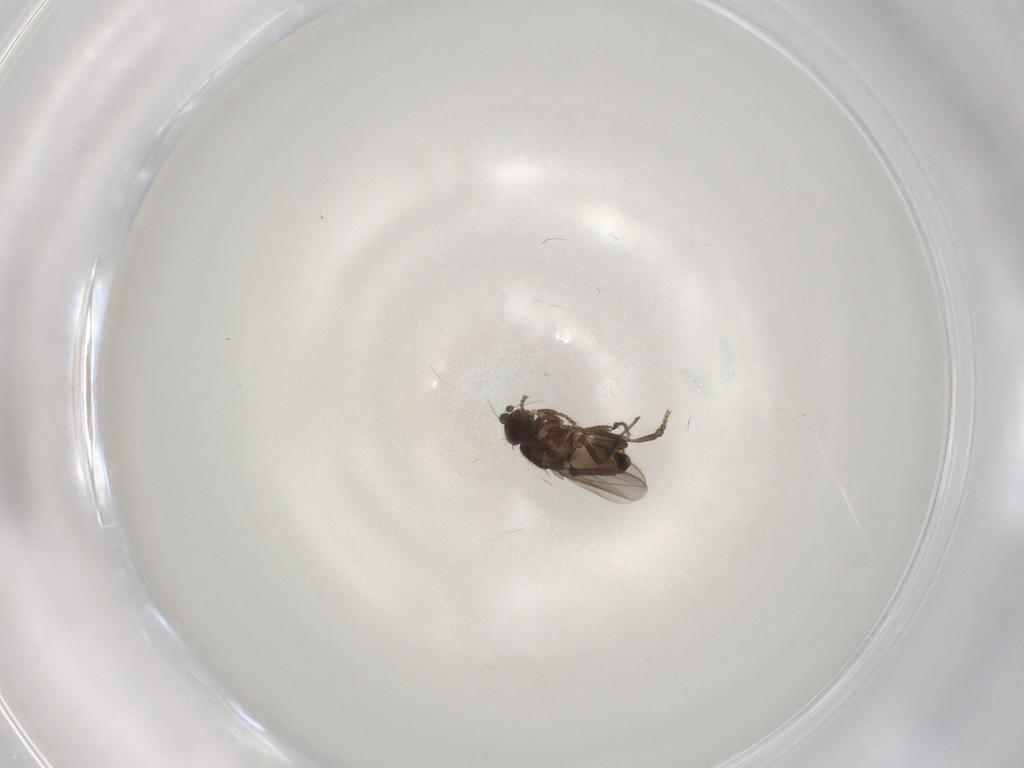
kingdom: Animalia
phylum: Arthropoda
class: Insecta
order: Diptera
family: Sphaeroceridae
